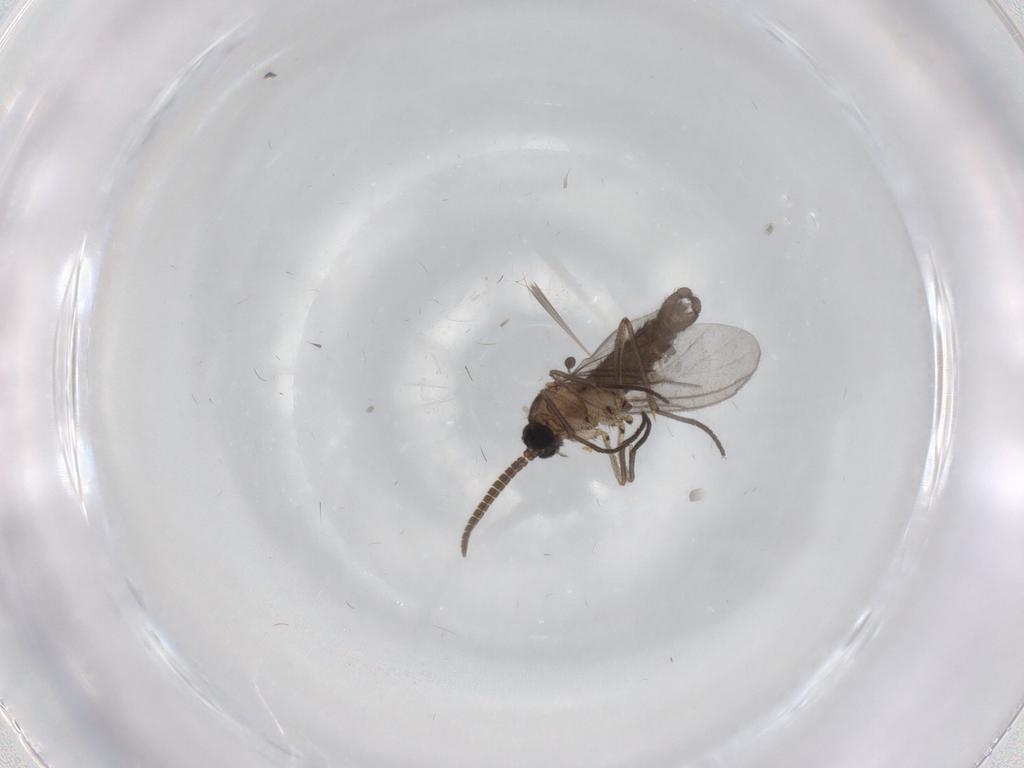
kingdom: Animalia
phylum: Arthropoda
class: Insecta
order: Diptera
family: Phoridae
